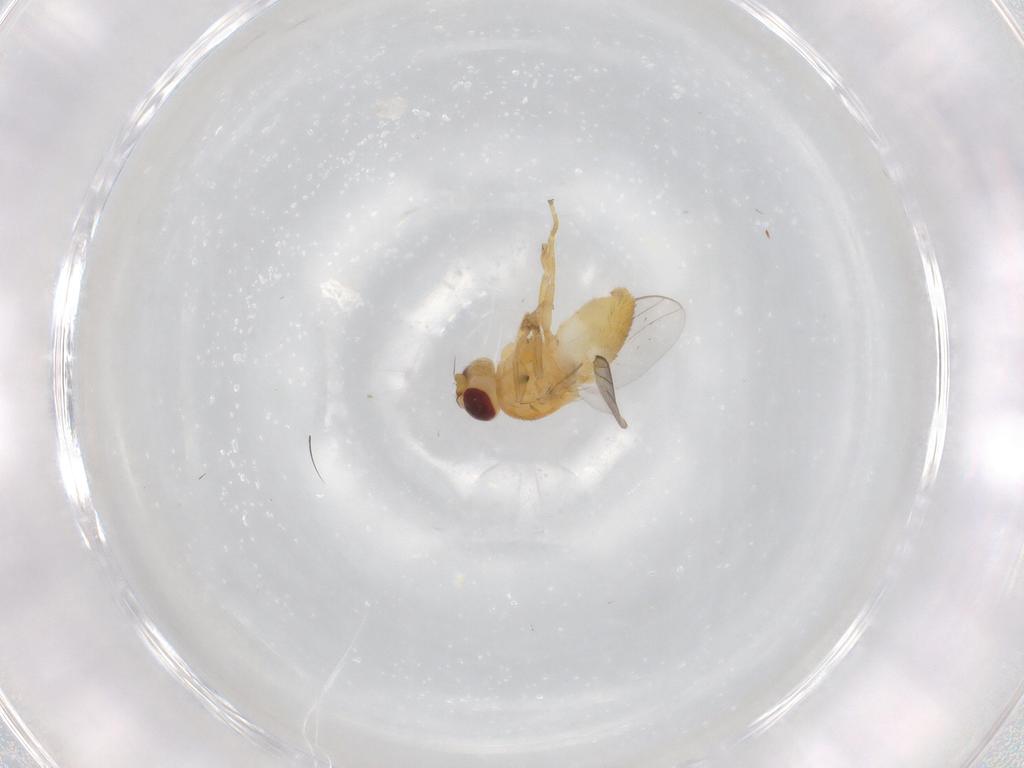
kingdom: Animalia
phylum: Arthropoda
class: Insecta
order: Diptera
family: Chloropidae
